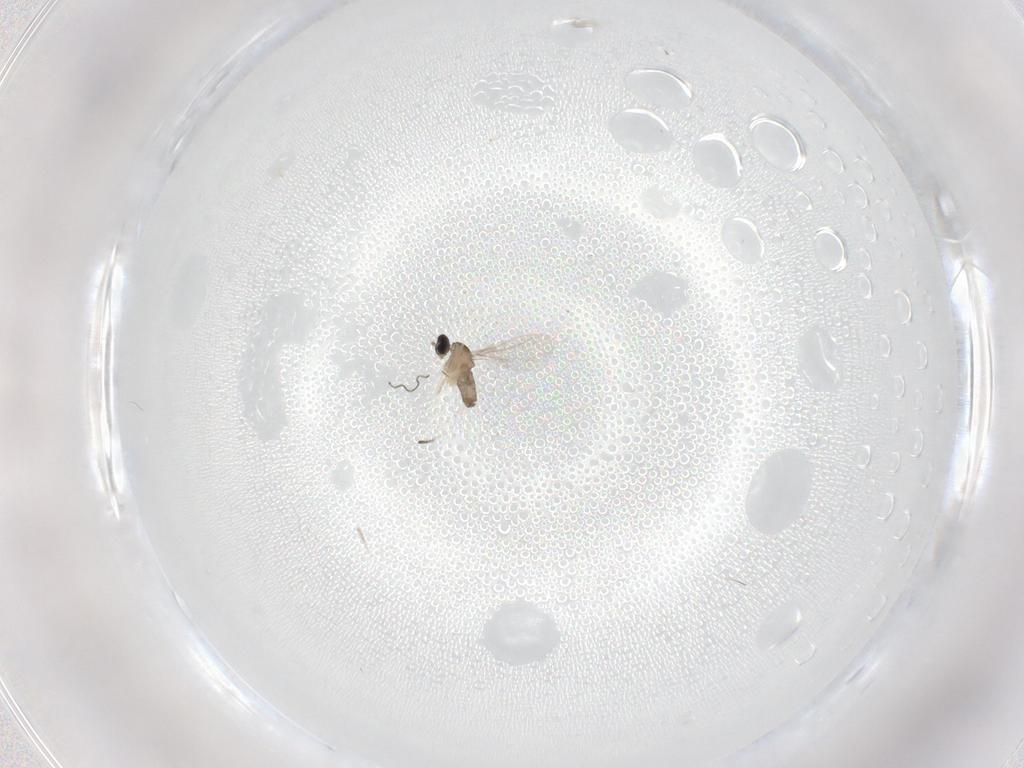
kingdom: Animalia
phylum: Arthropoda
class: Insecta
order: Diptera
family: Cecidomyiidae
